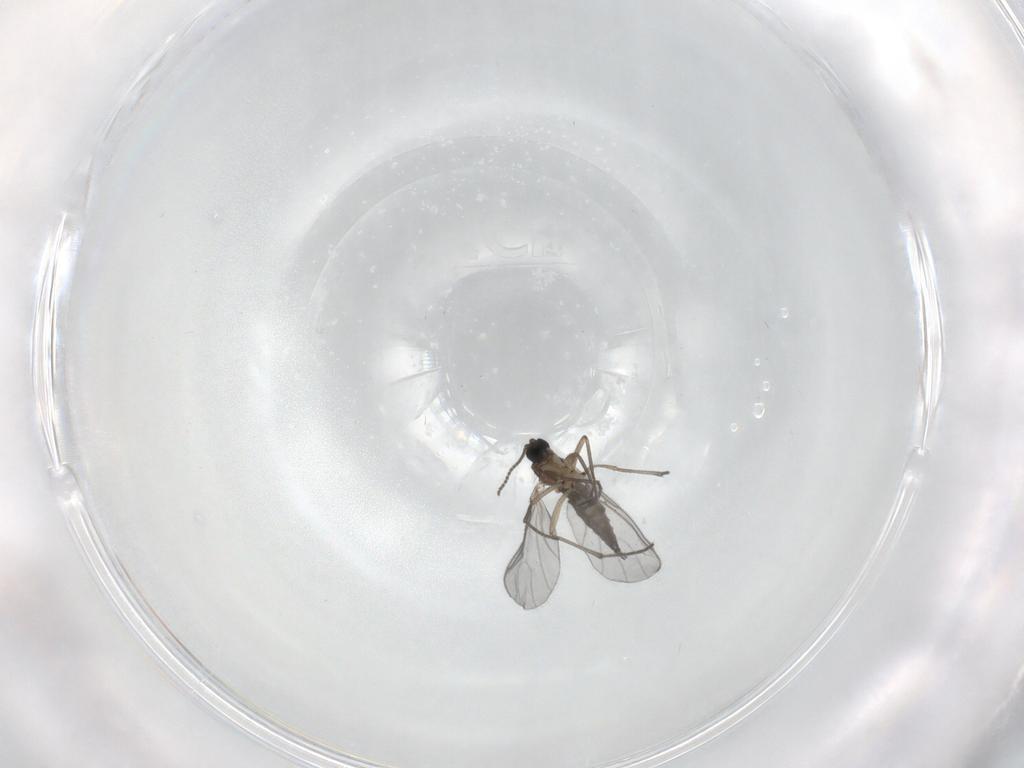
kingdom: Animalia
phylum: Arthropoda
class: Insecta
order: Diptera
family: Sciaridae
